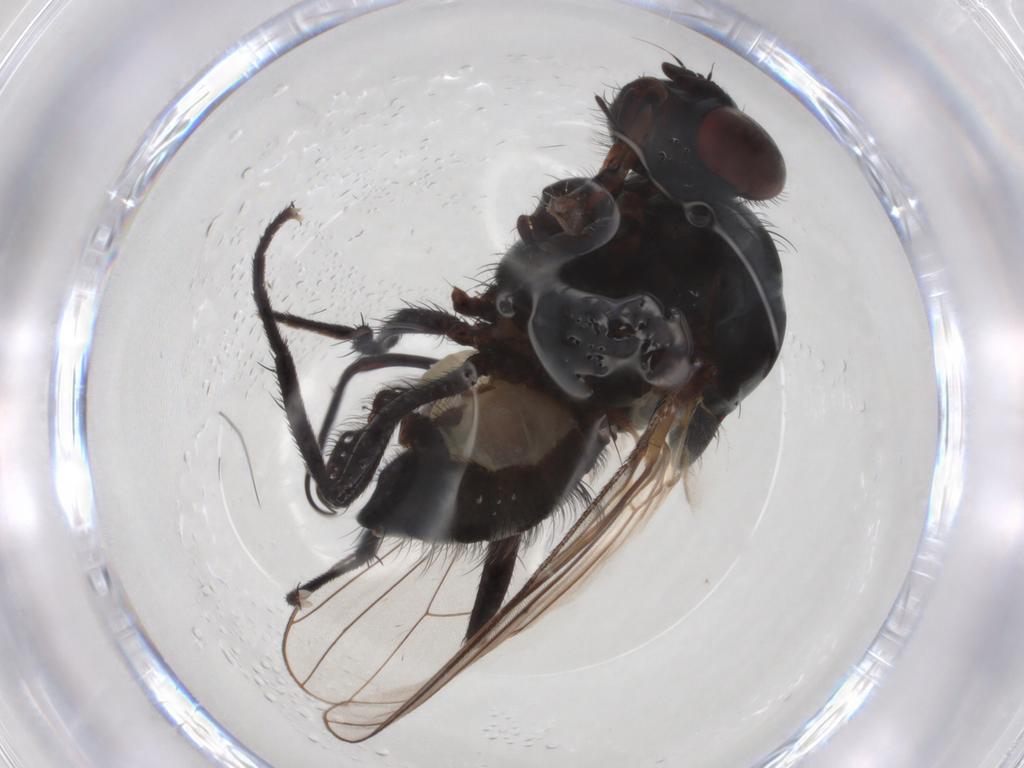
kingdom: Animalia
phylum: Arthropoda
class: Insecta
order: Diptera
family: Anthomyiidae
